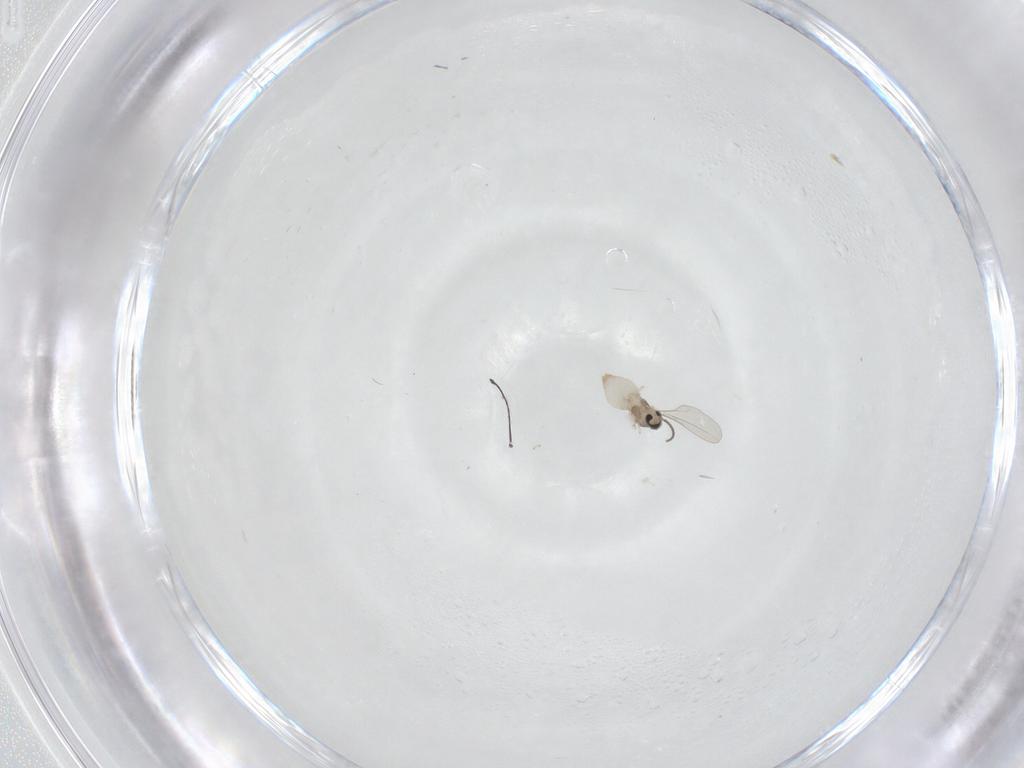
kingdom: Animalia
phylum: Arthropoda
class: Insecta
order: Diptera
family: Cecidomyiidae
